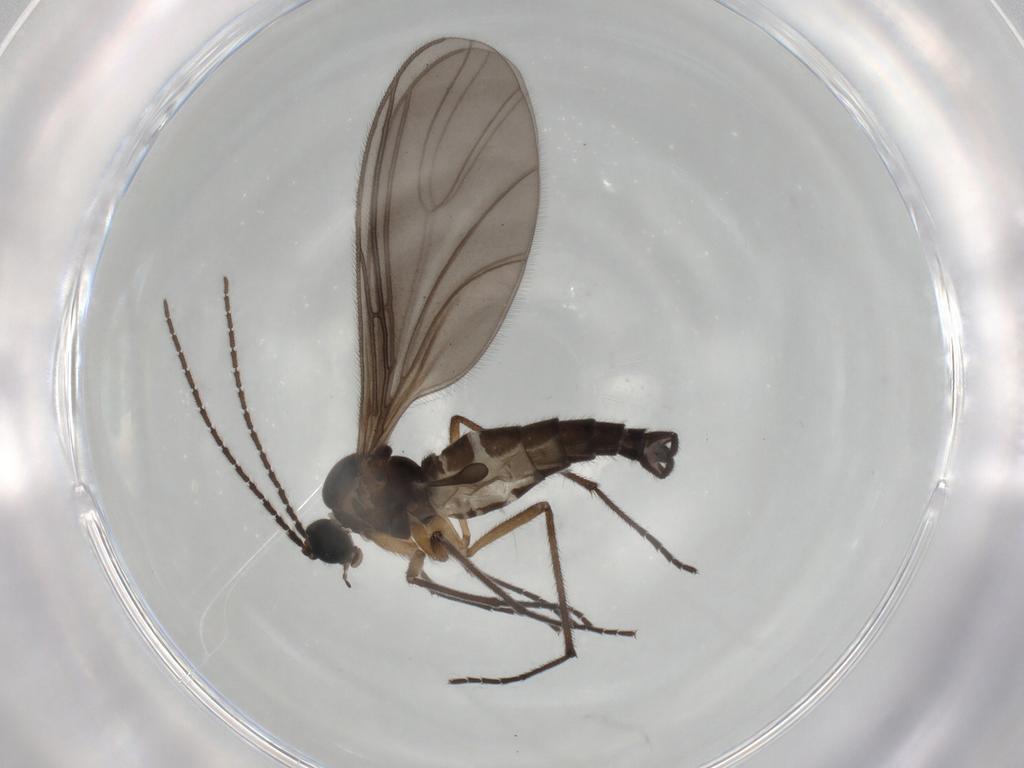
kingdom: Animalia
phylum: Arthropoda
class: Insecta
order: Diptera
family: Sciaridae
